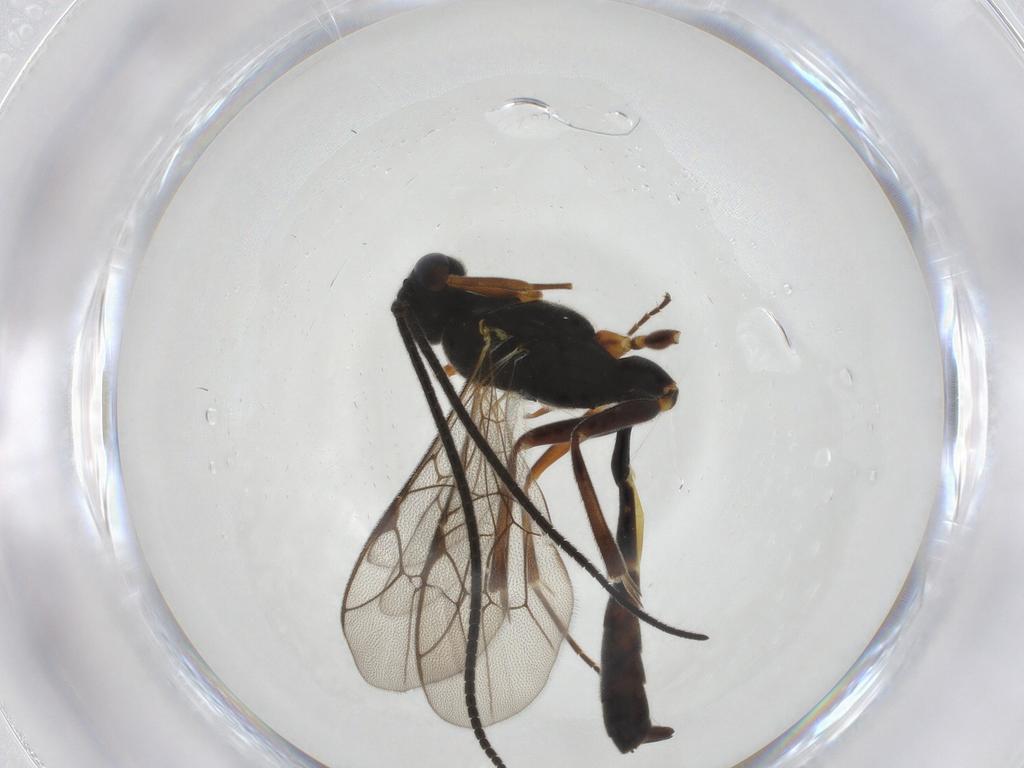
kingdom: Animalia
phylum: Arthropoda
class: Insecta
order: Hymenoptera
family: Ichneumonidae
